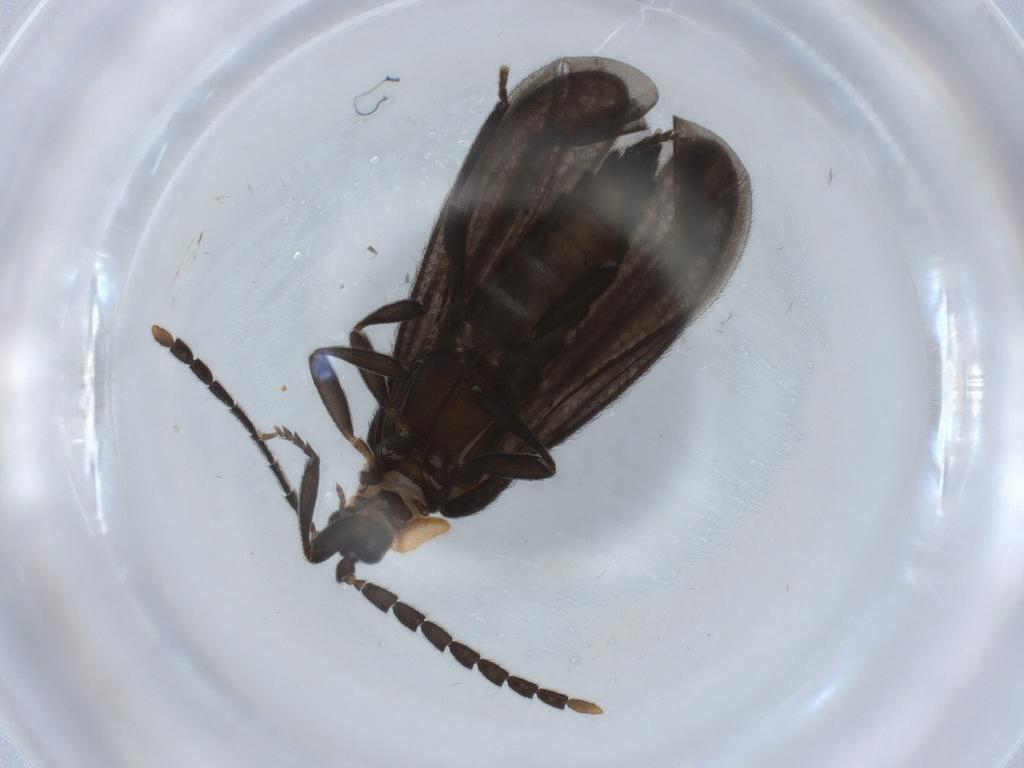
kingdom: Animalia
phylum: Arthropoda
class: Insecta
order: Coleoptera
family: Lycidae
